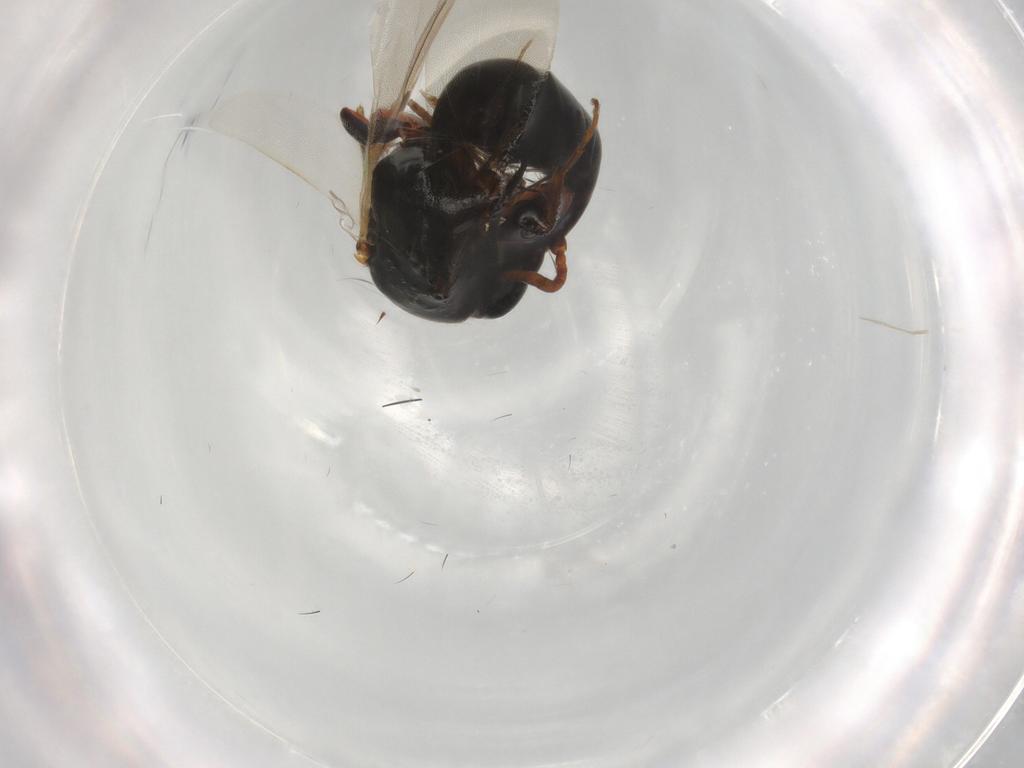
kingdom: Animalia
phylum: Arthropoda
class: Insecta
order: Hymenoptera
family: Bethylidae
